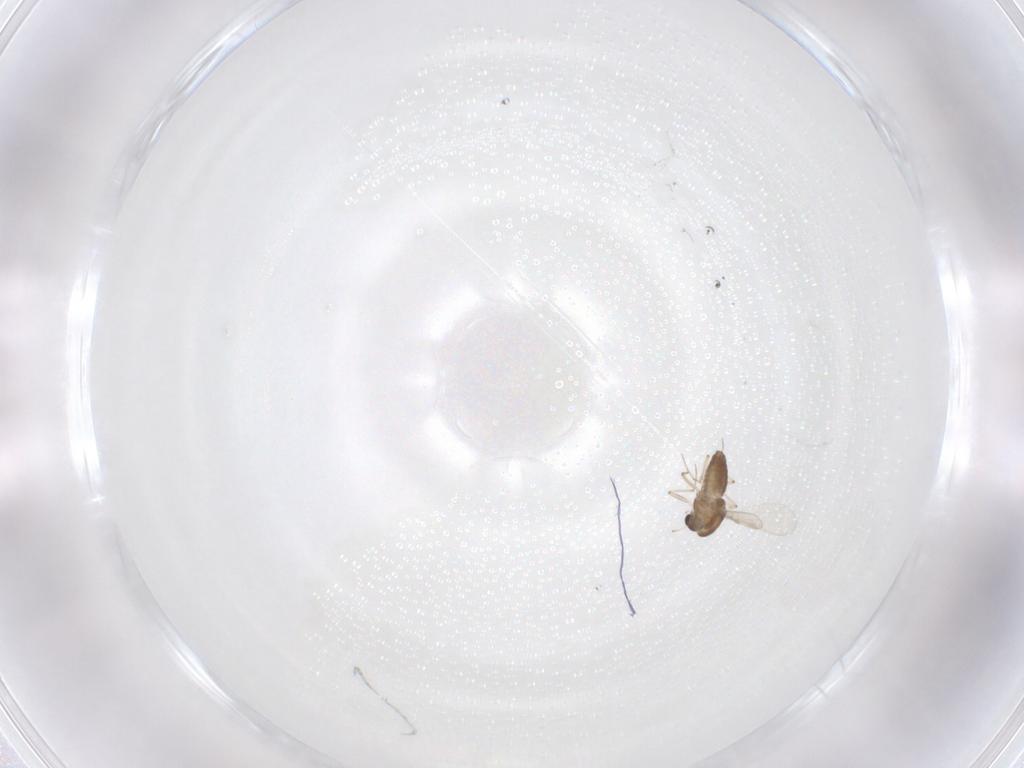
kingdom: Animalia
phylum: Arthropoda
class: Insecta
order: Diptera
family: Chironomidae
